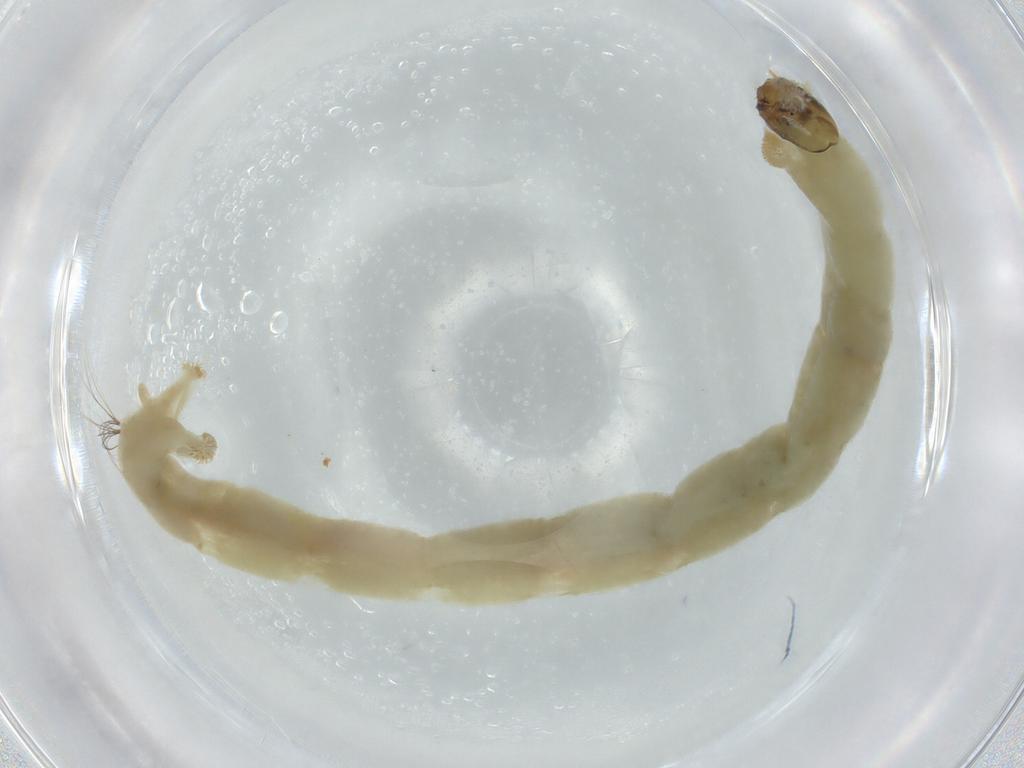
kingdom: Animalia
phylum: Arthropoda
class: Insecta
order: Diptera
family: Chironomidae
